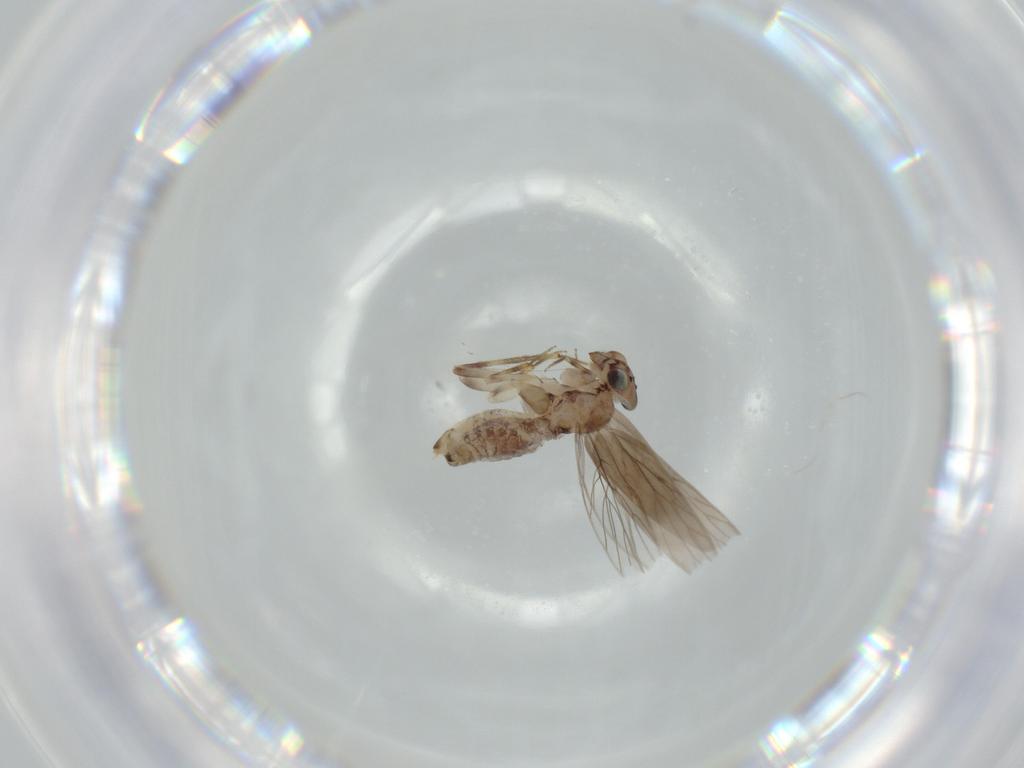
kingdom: Animalia
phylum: Arthropoda
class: Insecta
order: Psocodea
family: Lepidopsocidae
